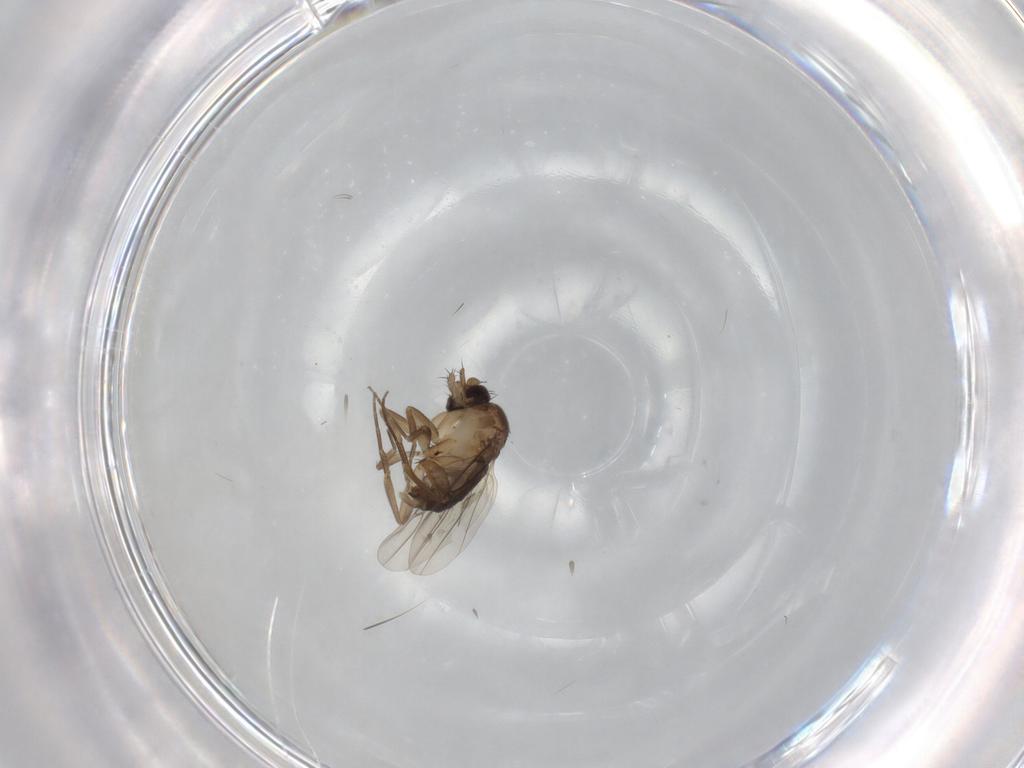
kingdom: Animalia
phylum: Arthropoda
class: Insecta
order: Diptera
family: Phoridae
